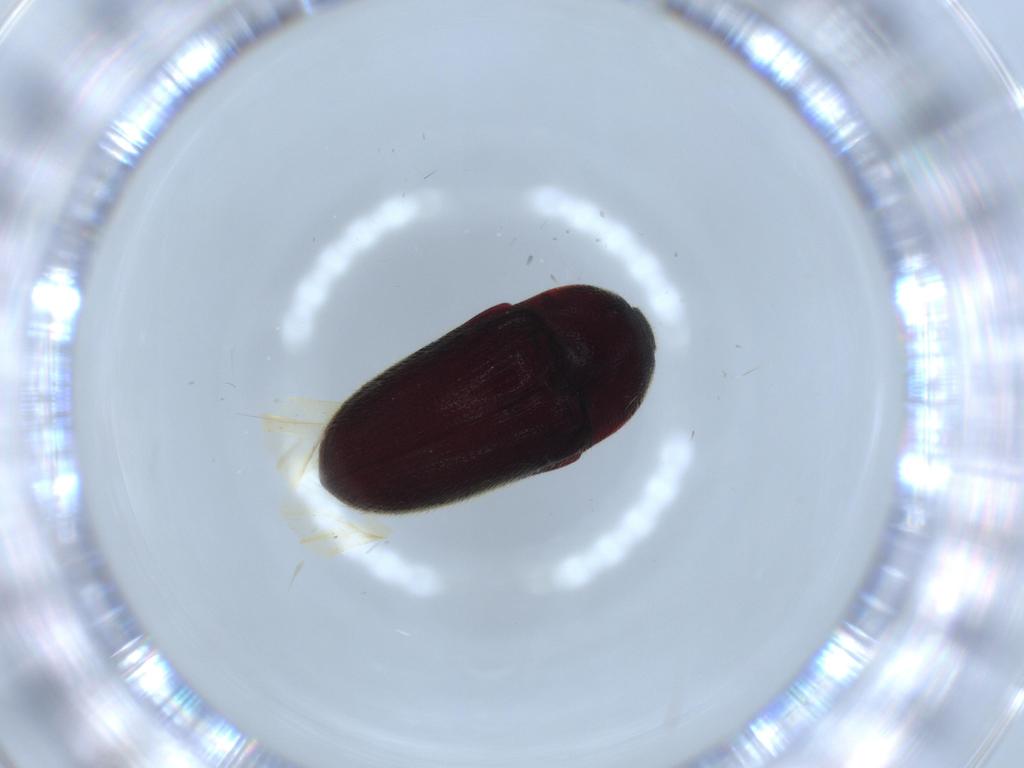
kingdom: Animalia
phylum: Arthropoda
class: Insecta
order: Coleoptera
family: Throscidae
